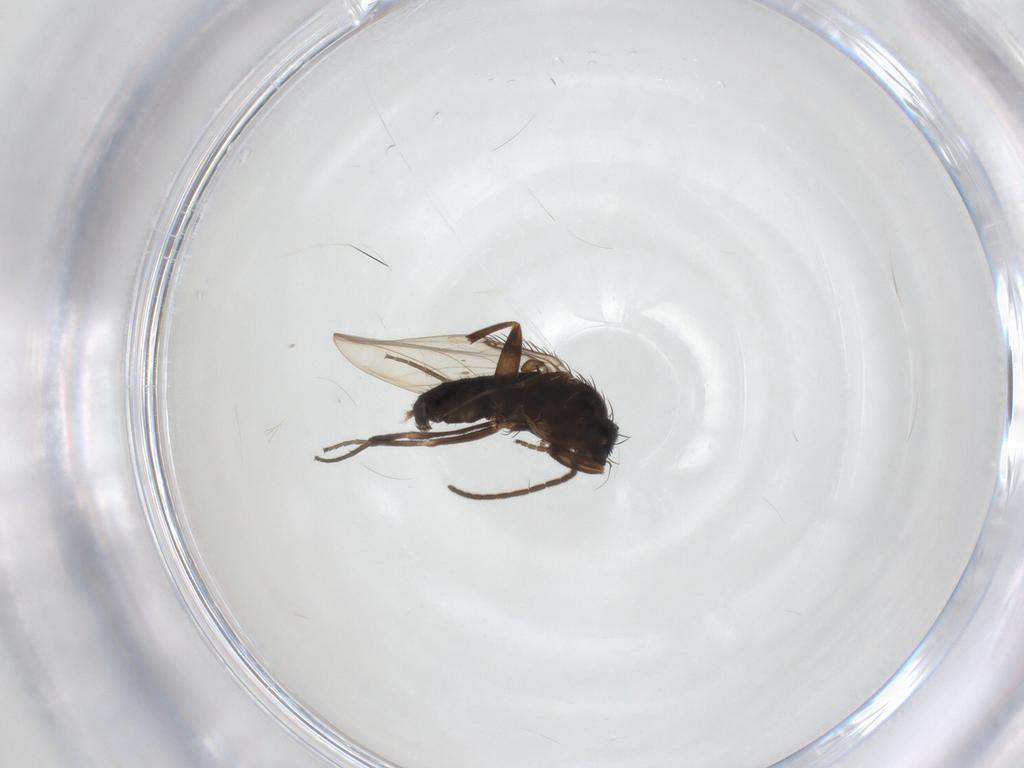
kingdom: Animalia
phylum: Arthropoda
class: Insecta
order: Diptera
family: Phoridae
